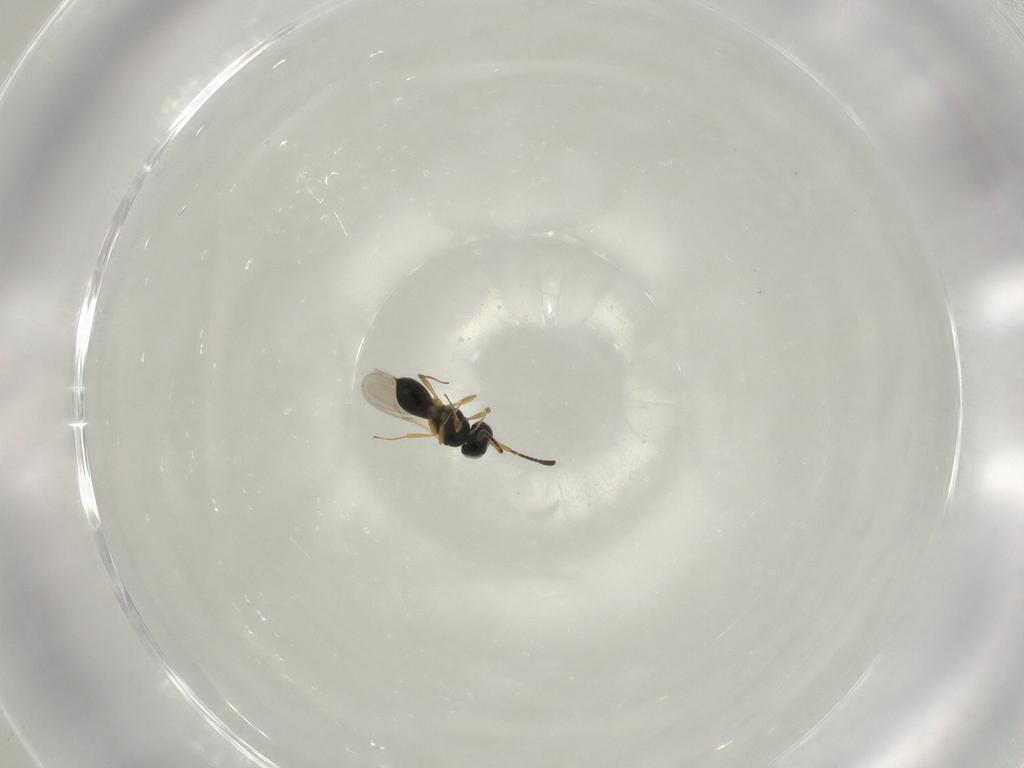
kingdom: Animalia
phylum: Arthropoda
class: Insecta
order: Hymenoptera
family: Scelionidae
